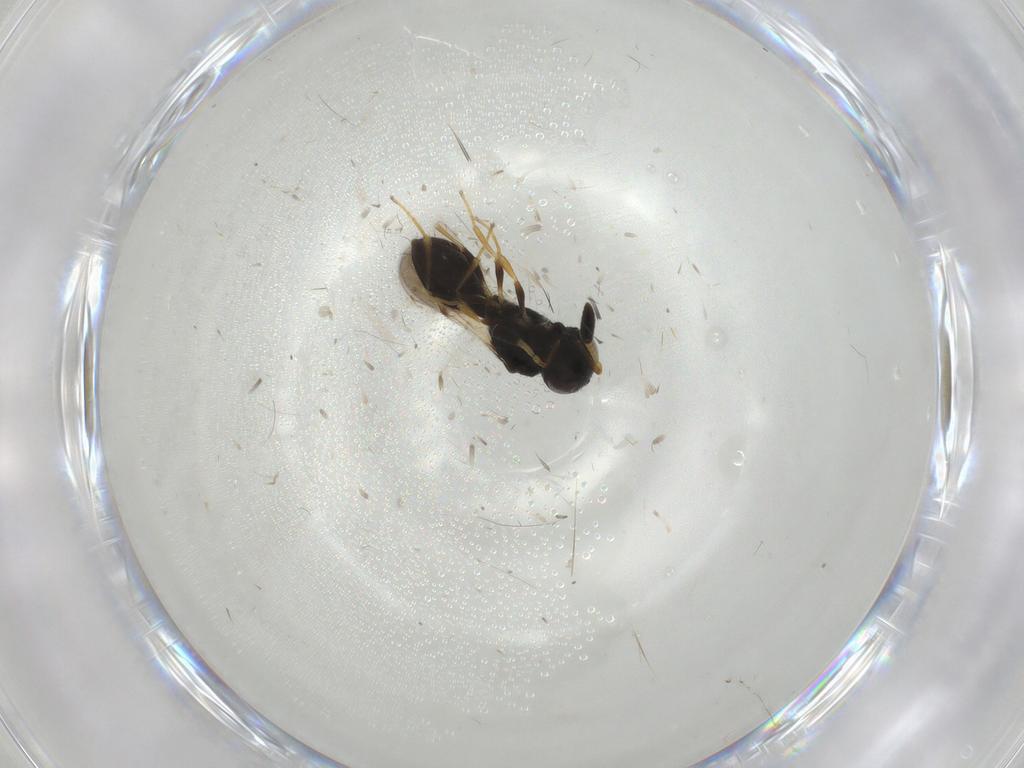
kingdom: Animalia
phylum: Arthropoda
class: Insecta
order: Hymenoptera
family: Scelionidae
